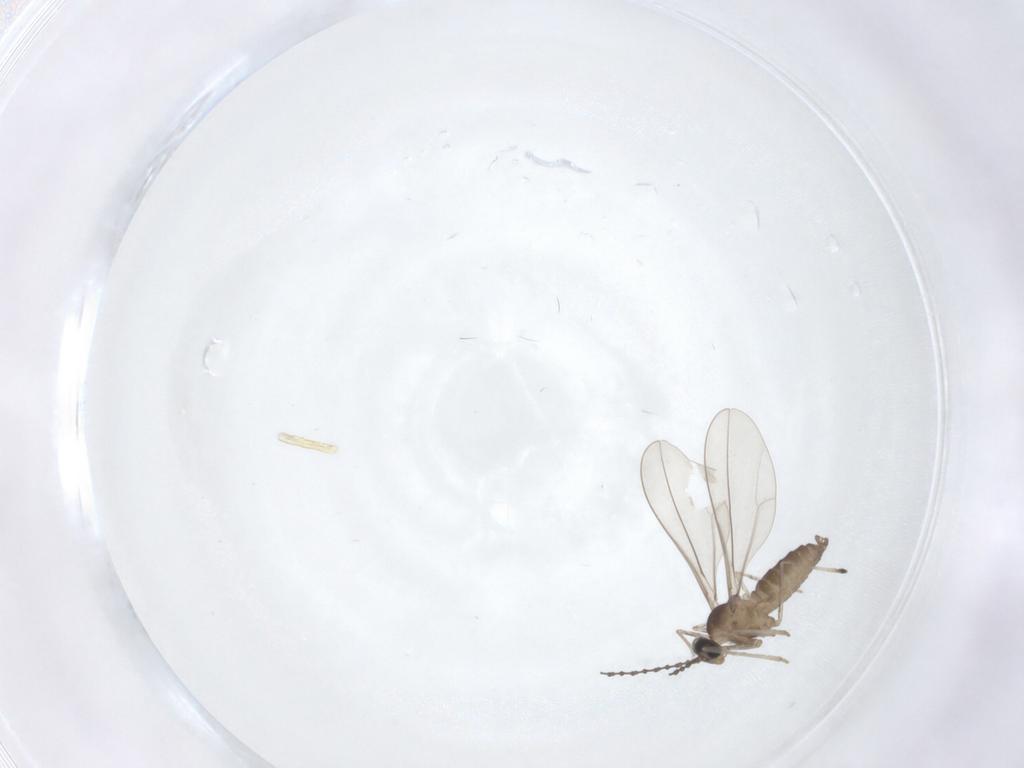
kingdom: Animalia
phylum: Arthropoda
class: Insecta
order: Diptera
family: Cecidomyiidae
